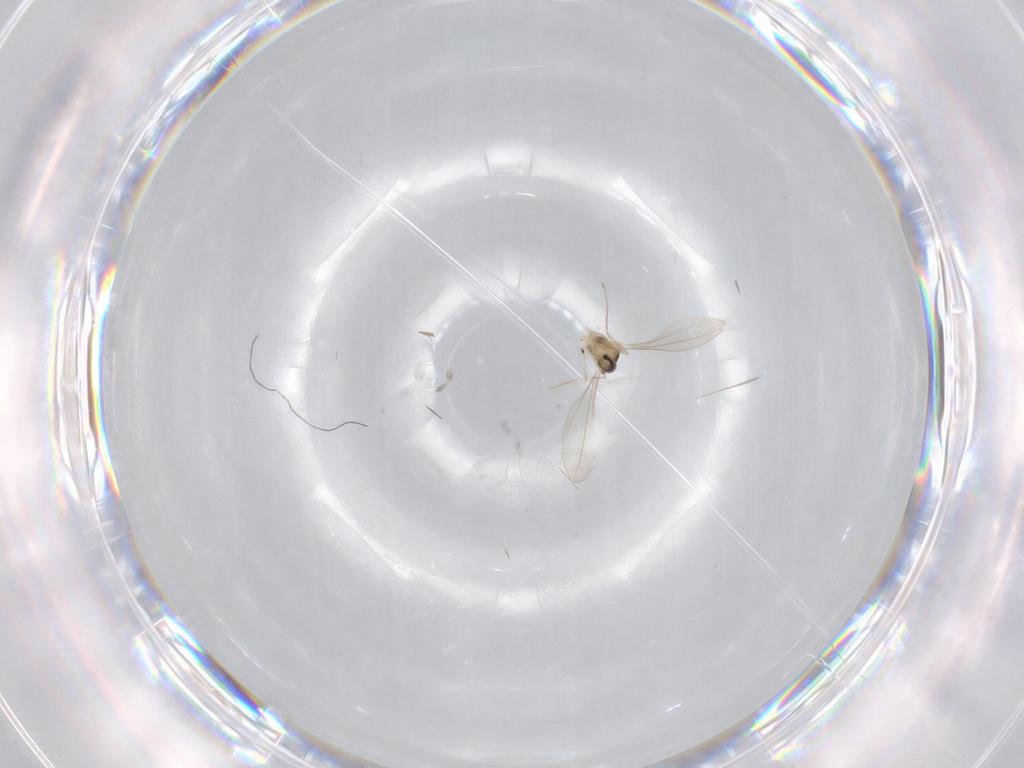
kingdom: Animalia
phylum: Arthropoda
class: Insecta
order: Diptera
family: Cecidomyiidae
